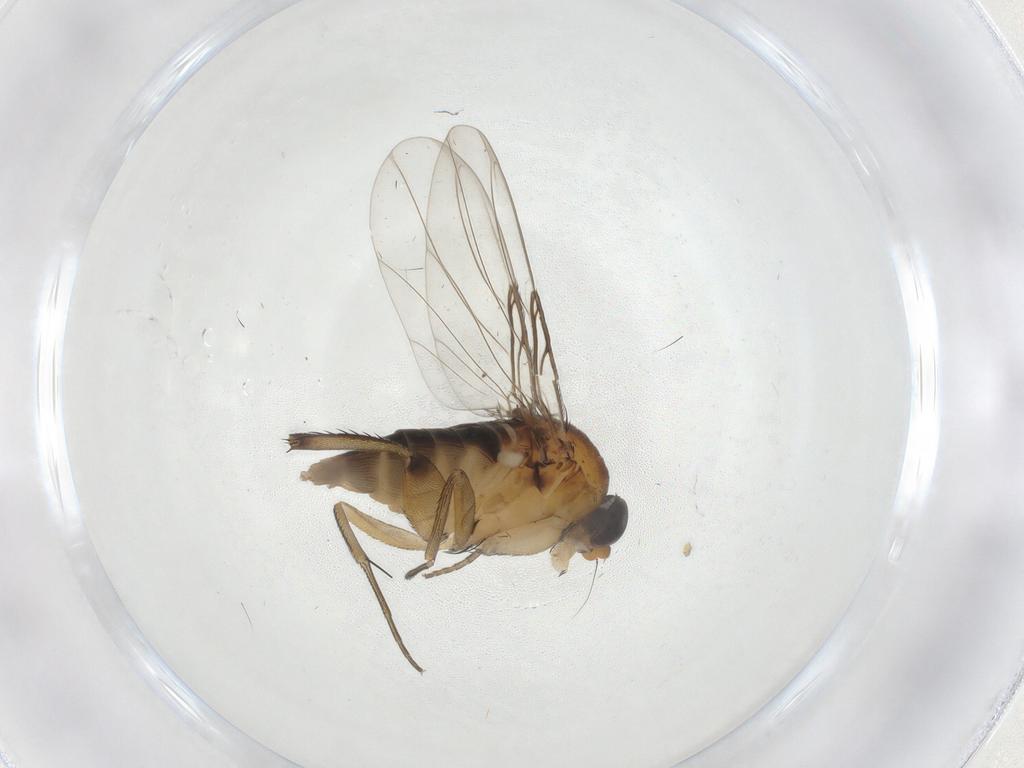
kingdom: Animalia
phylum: Arthropoda
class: Insecta
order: Diptera
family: Phoridae
